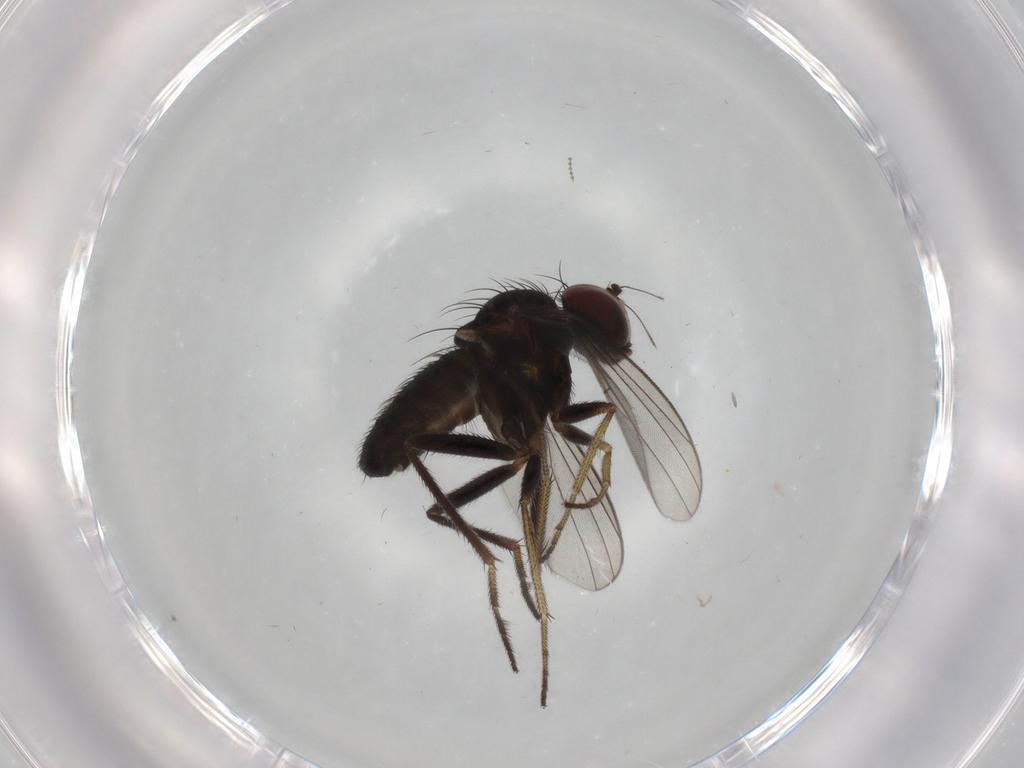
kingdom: Animalia
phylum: Arthropoda
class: Insecta
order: Diptera
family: Dolichopodidae
